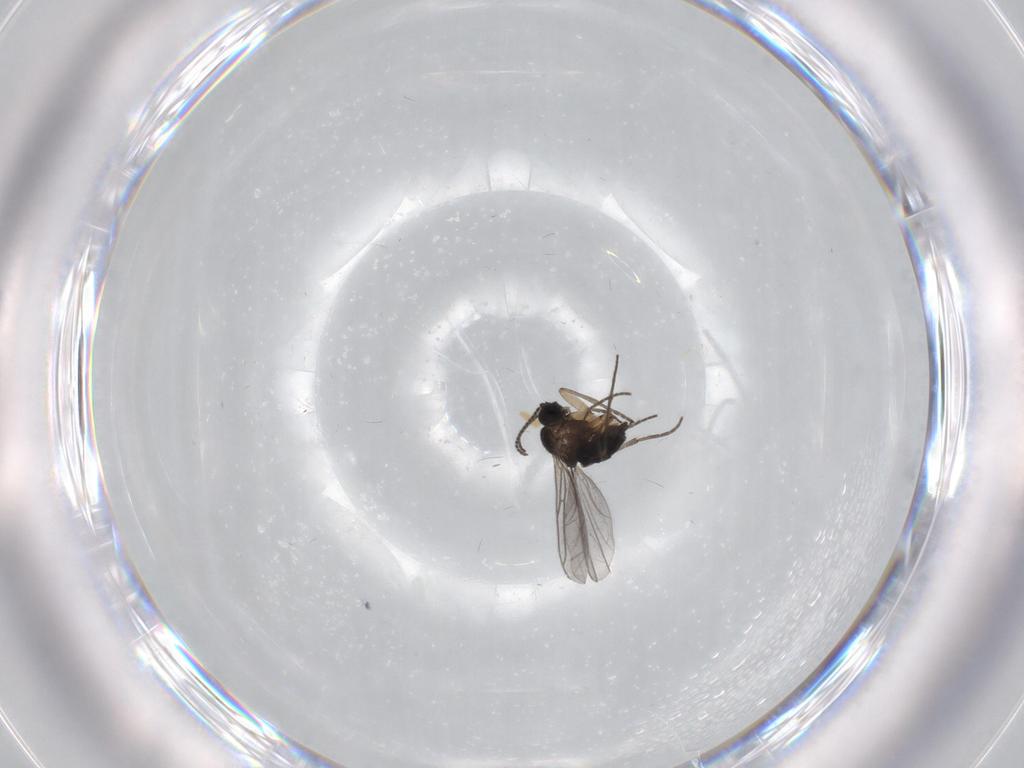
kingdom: Animalia
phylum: Arthropoda
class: Insecta
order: Diptera
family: Sciaridae
